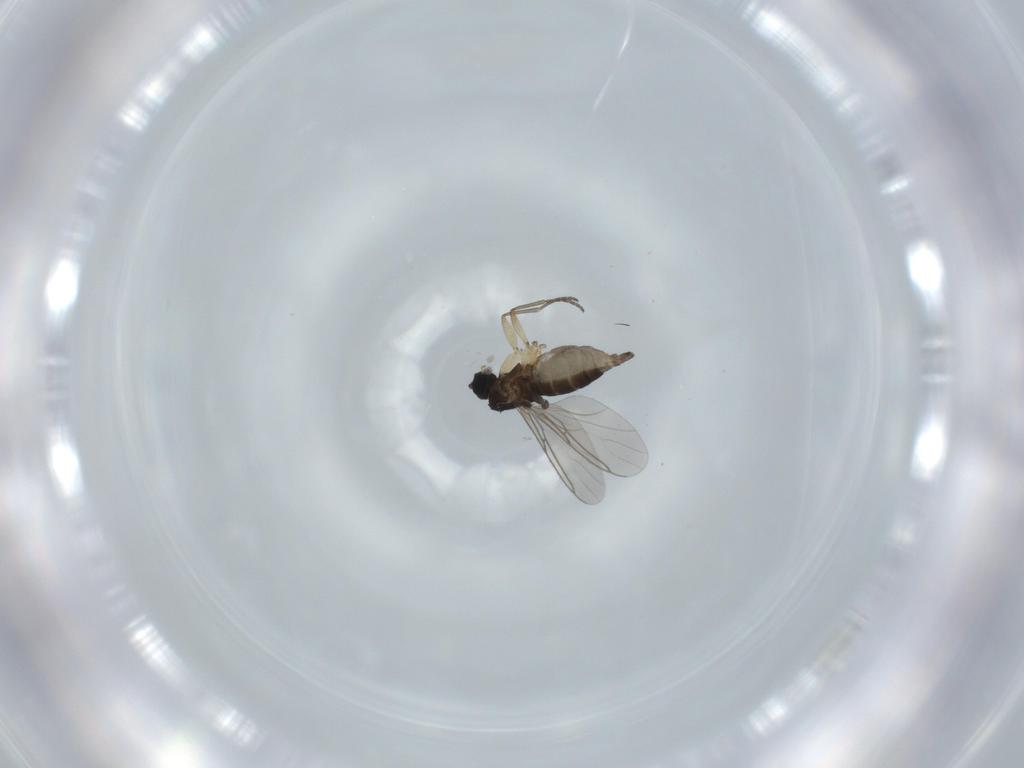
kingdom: Animalia
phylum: Arthropoda
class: Insecta
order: Diptera
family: Sciaridae
